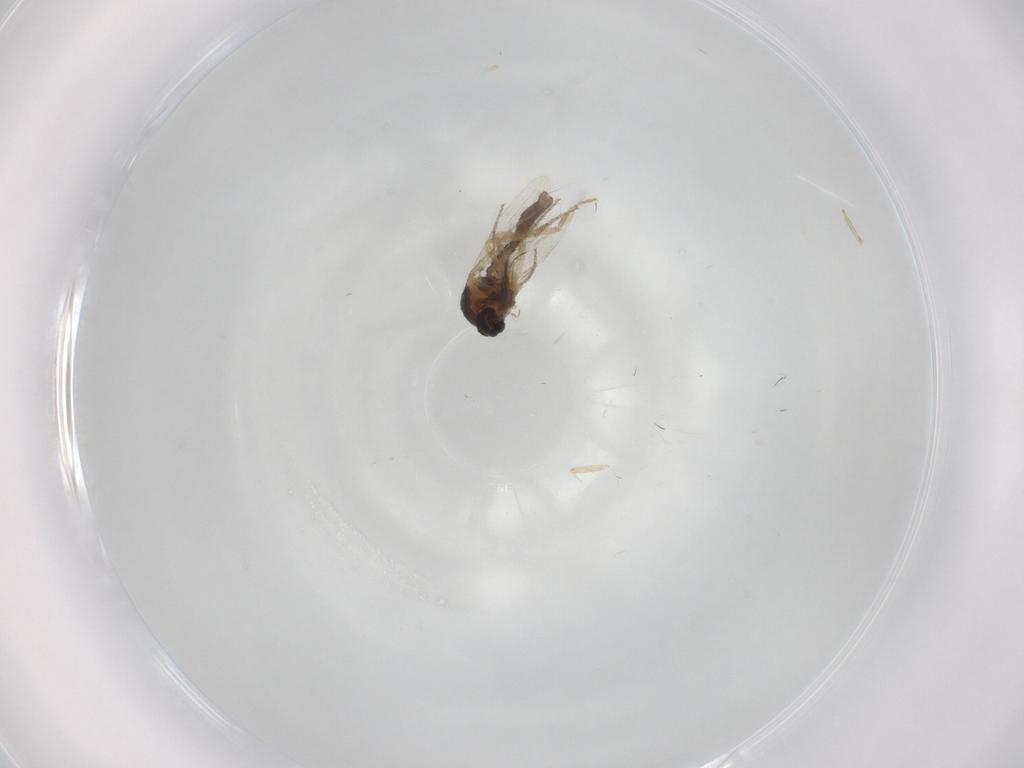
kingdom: Animalia
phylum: Arthropoda
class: Insecta
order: Diptera
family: Ceratopogonidae
